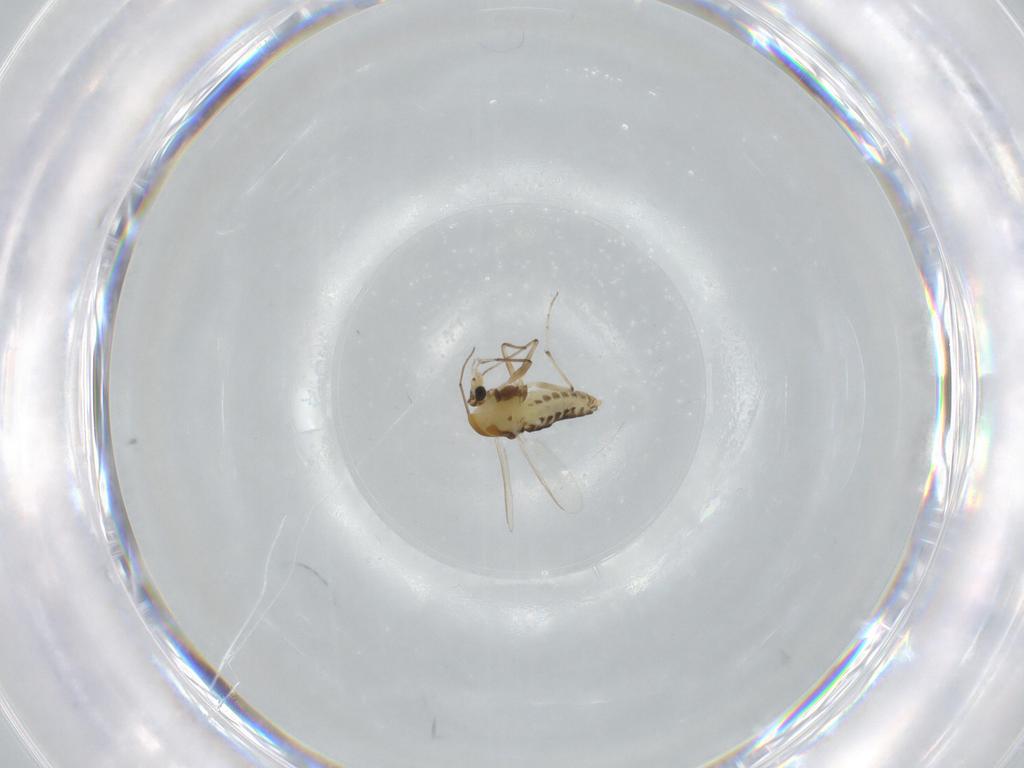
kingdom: Animalia
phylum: Arthropoda
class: Insecta
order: Diptera
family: Chironomidae
